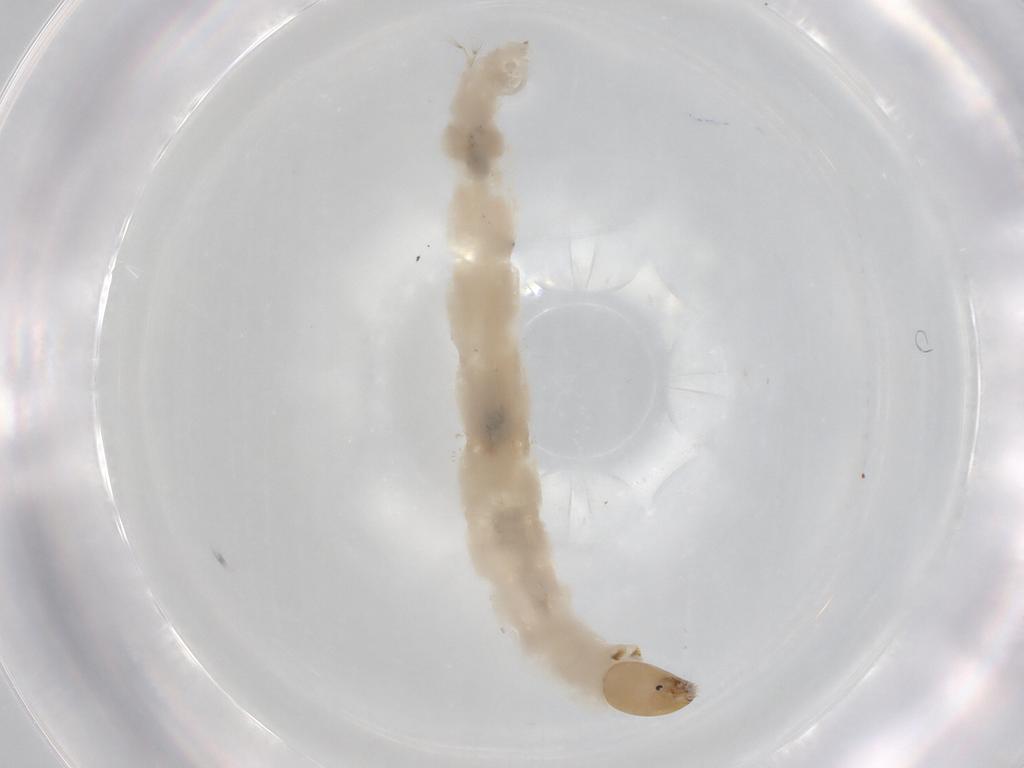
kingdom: Animalia
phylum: Arthropoda
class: Insecta
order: Diptera
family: Chironomidae
